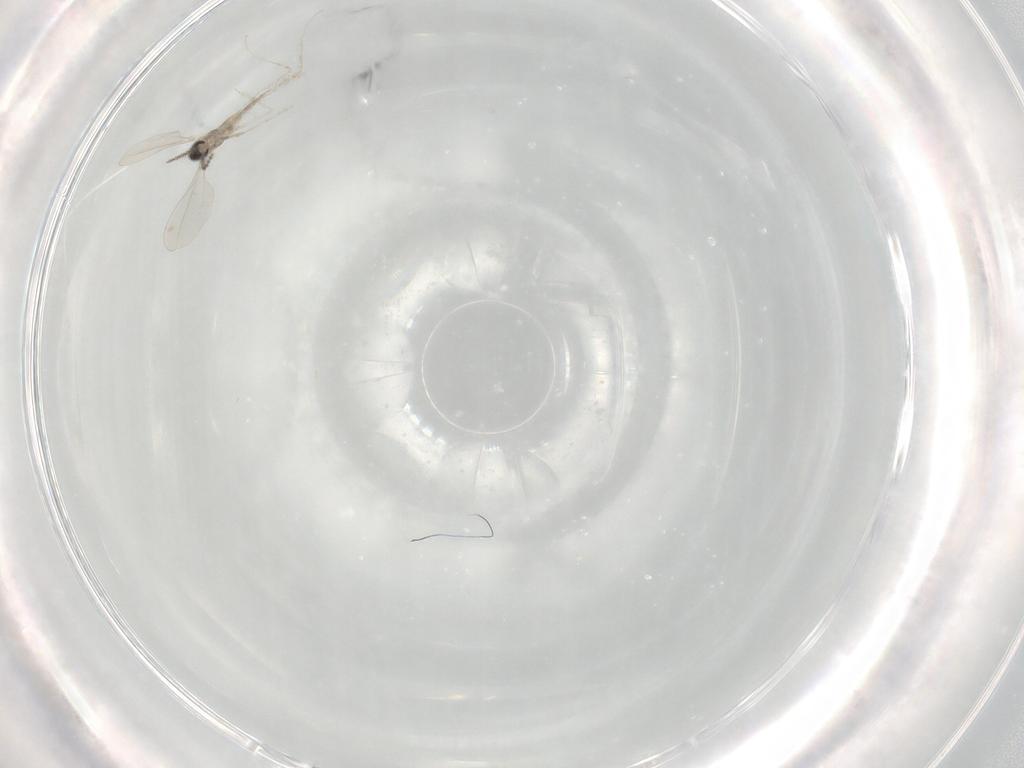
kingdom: Animalia
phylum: Arthropoda
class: Insecta
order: Diptera
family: Cecidomyiidae
